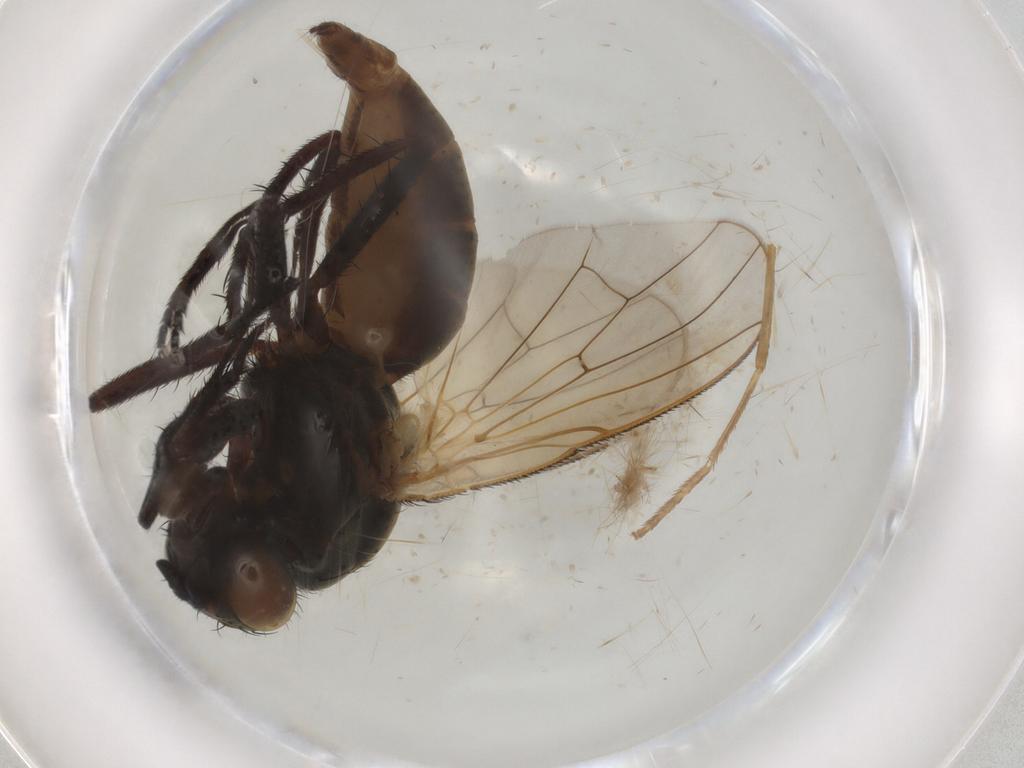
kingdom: Animalia
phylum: Arthropoda
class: Insecta
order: Diptera
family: Anthomyiidae
